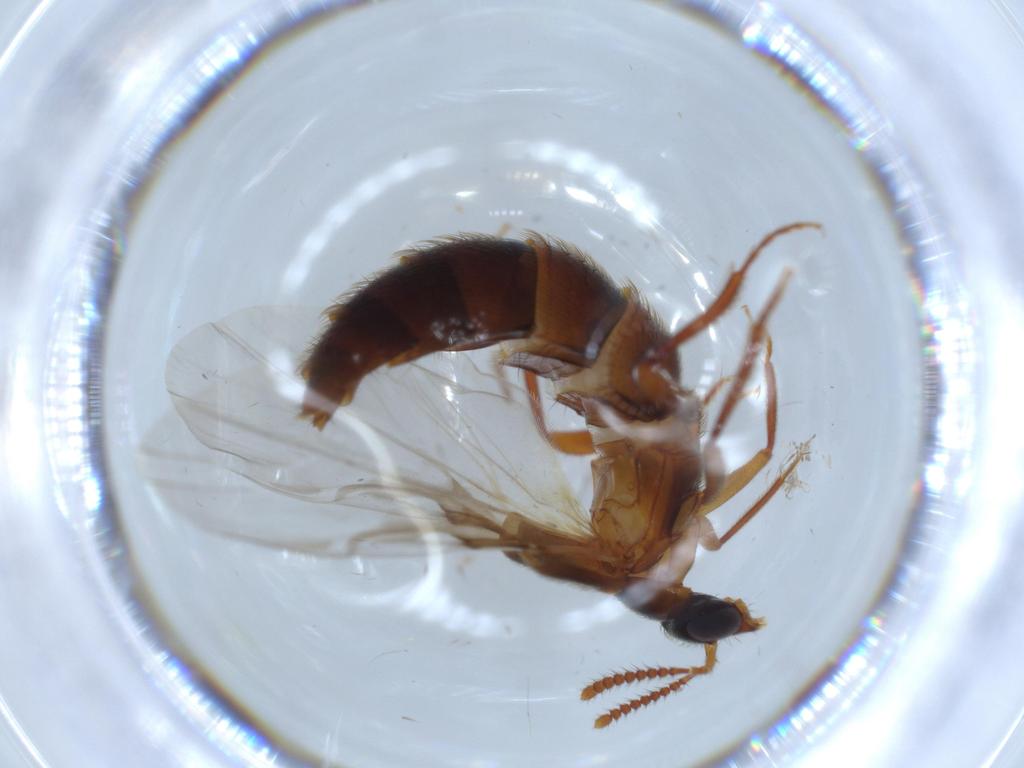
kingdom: Animalia
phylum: Arthropoda
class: Insecta
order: Coleoptera
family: Staphylinidae
